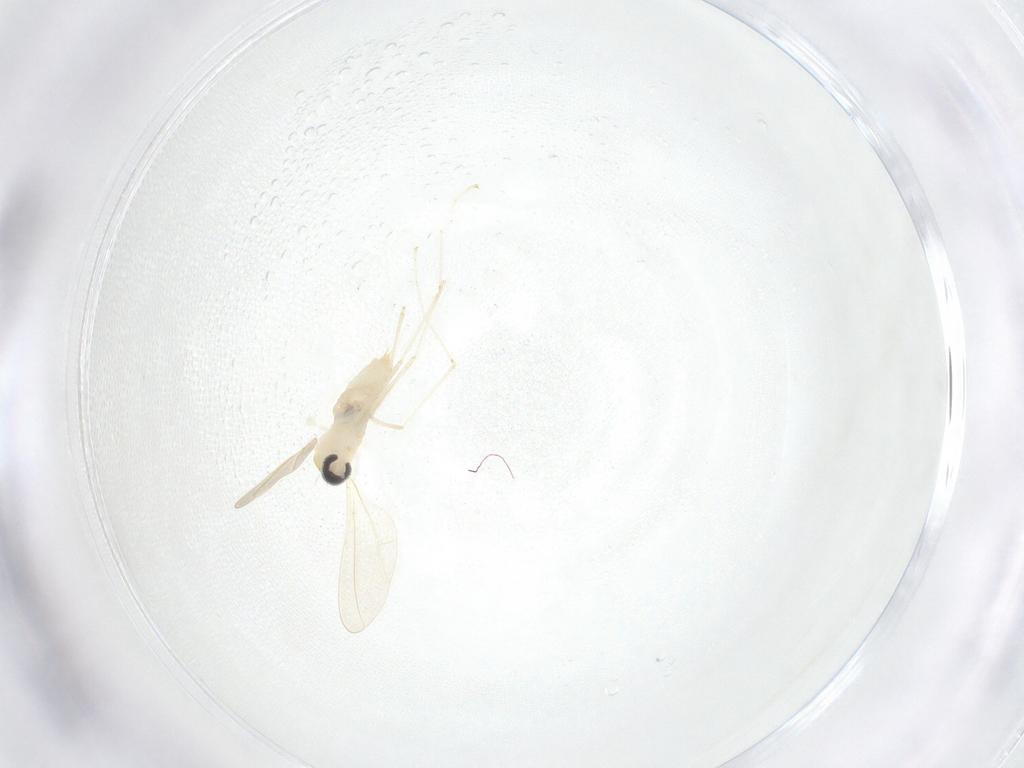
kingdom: Animalia
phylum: Arthropoda
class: Insecta
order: Diptera
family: Cecidomyiidae
